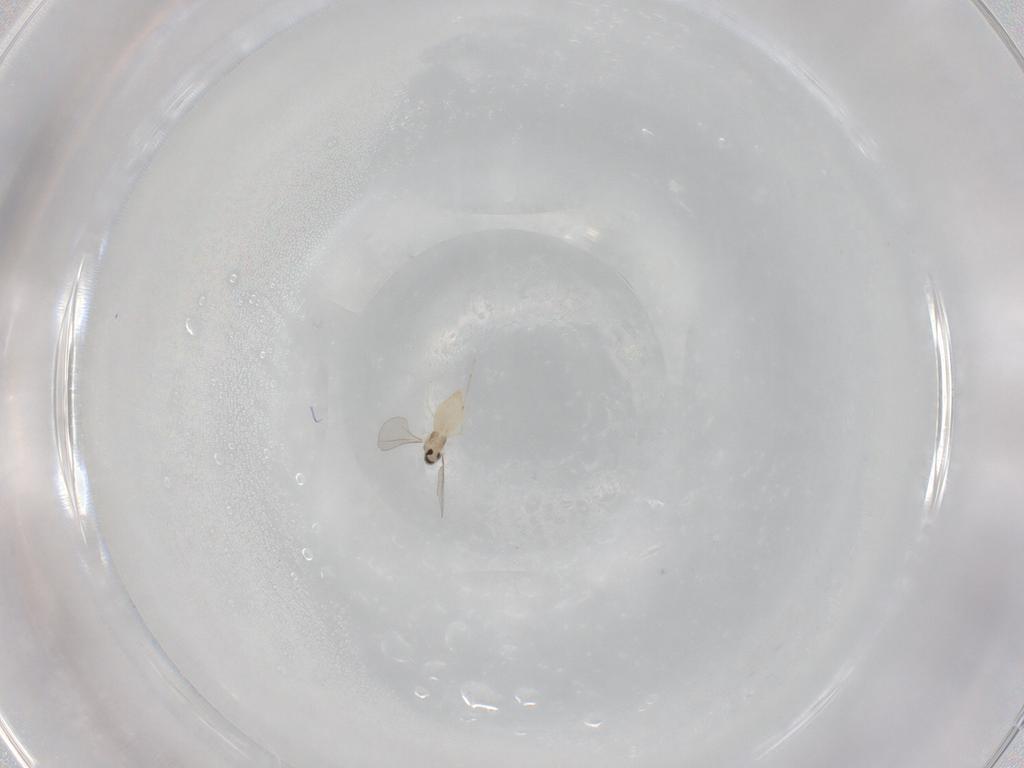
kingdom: Animalia
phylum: Arthropoda
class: Insecta
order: Diptera
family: Cecidomyiidae
